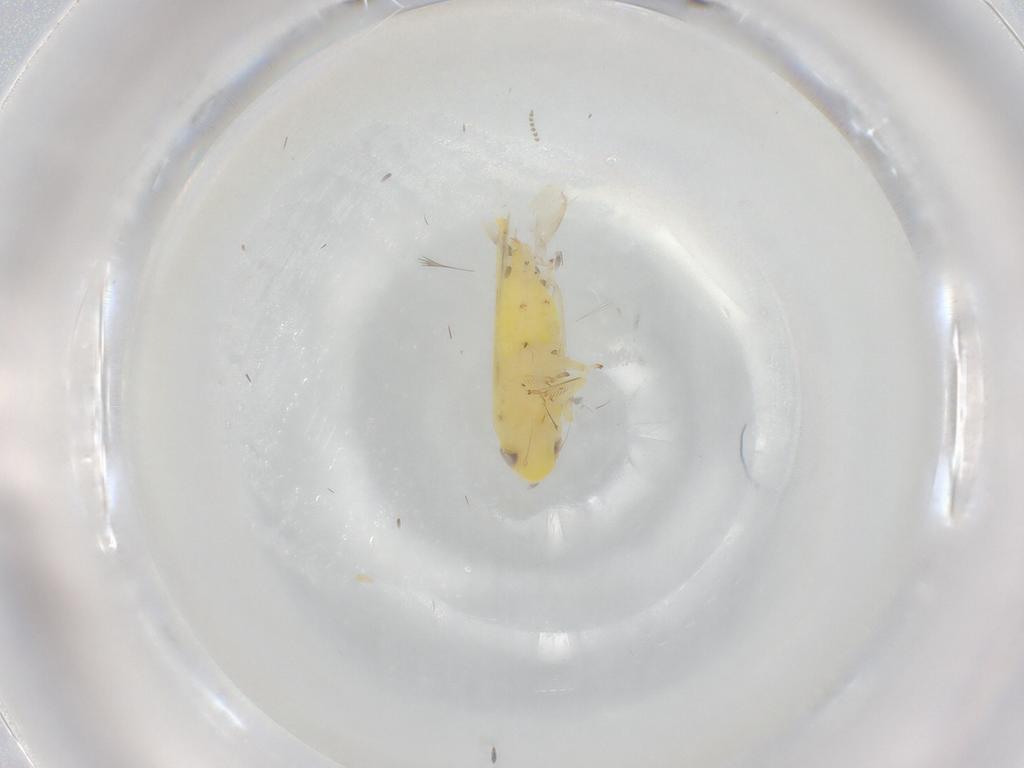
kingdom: Animalia
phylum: Arthropoda
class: Insecta
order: Hemiptera
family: Cicadellidae
